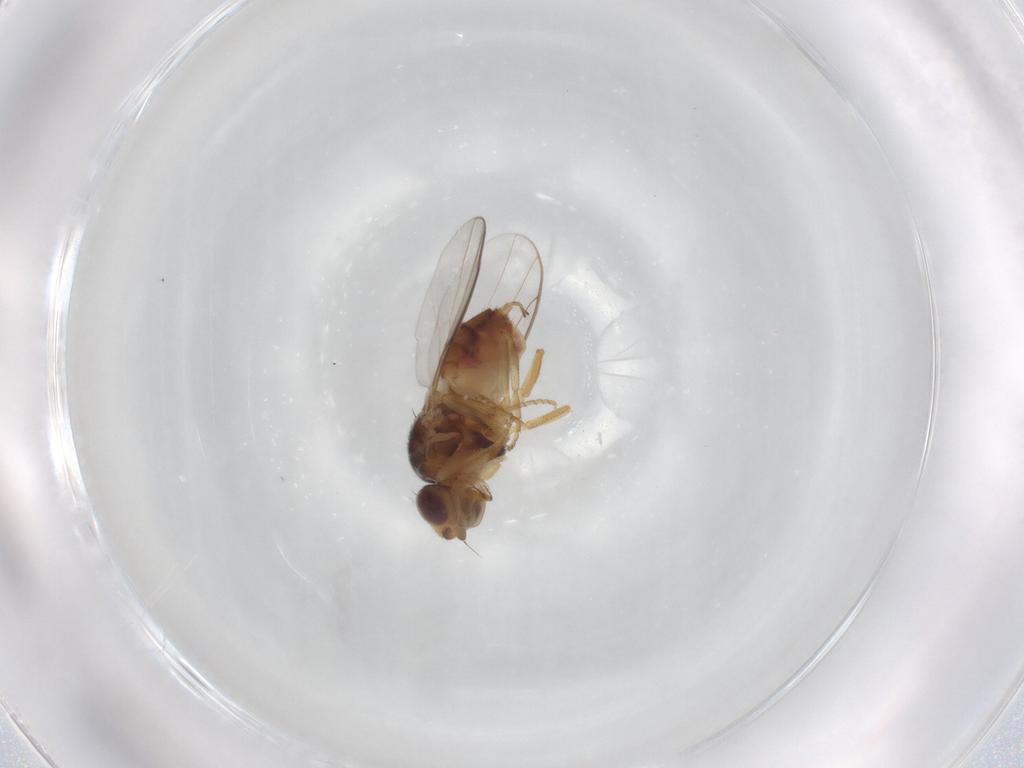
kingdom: Animalia
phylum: Arthropoda
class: Insecta
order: Diptera
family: Chloropidae
